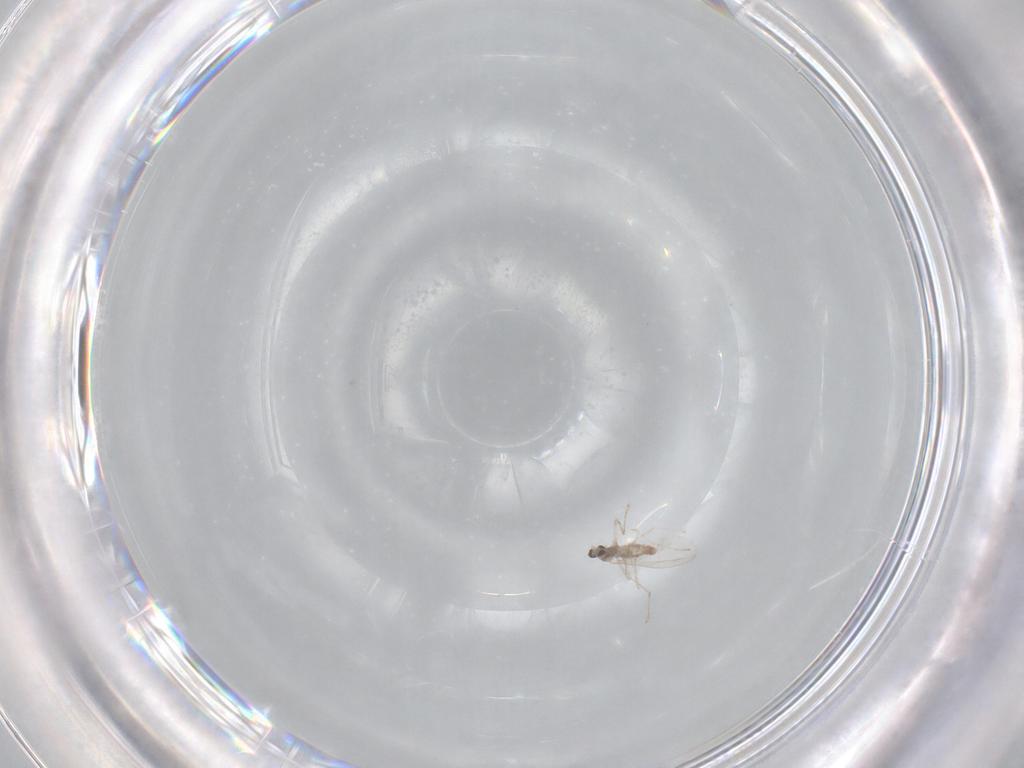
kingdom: Animalia
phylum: Arthropoda
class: Insecta
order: Diptera
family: Cecidomyiidae
